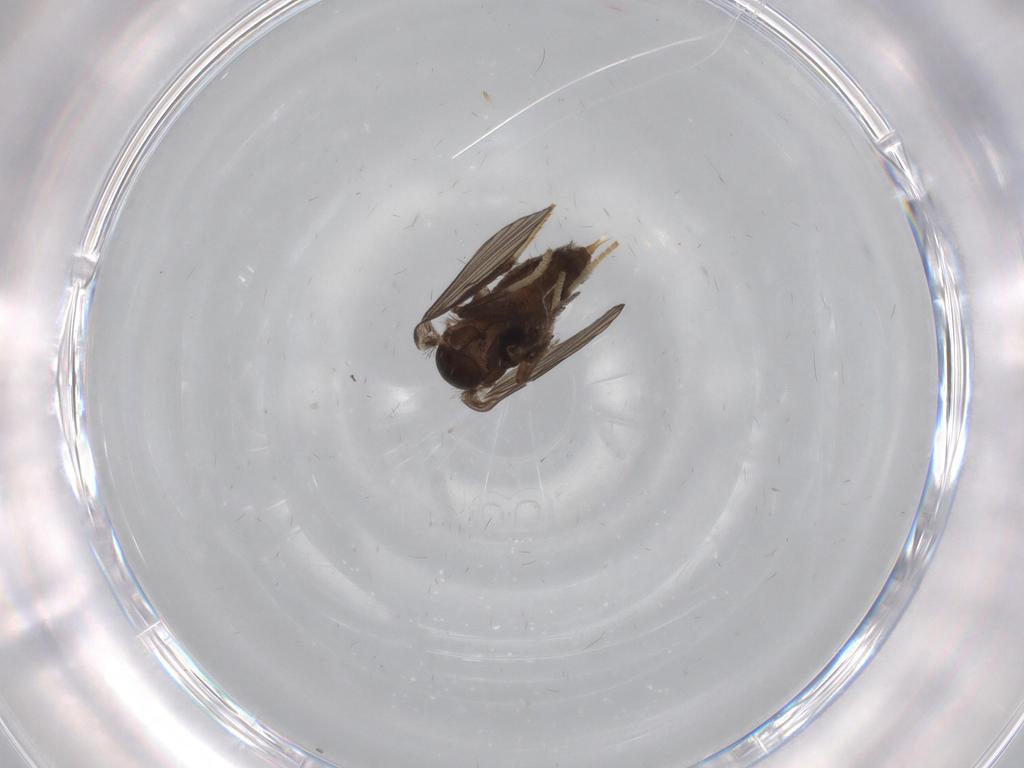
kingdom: Animalia
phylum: Arthropoda
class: Insecta
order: Diptera
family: Psychodidae
